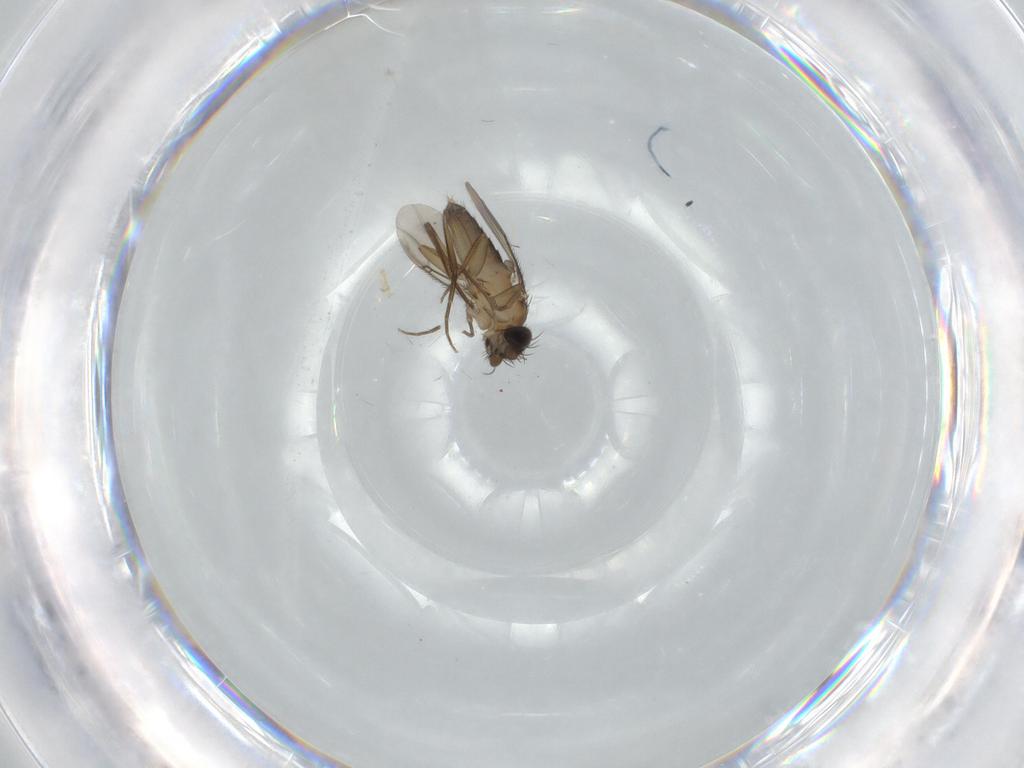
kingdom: Animalia
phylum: Arthropoda
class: Insecta
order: Diptera
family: Phoridae
